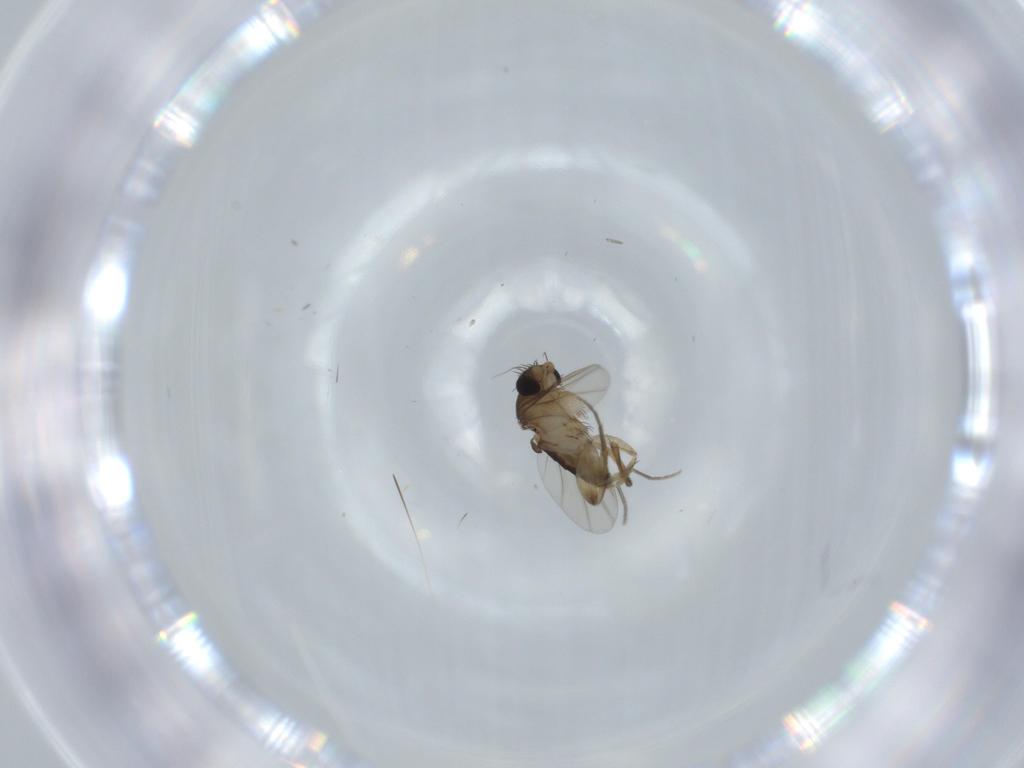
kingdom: Animalia
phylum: Arthropoda
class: Insecta
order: Diptera
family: Phoridae
